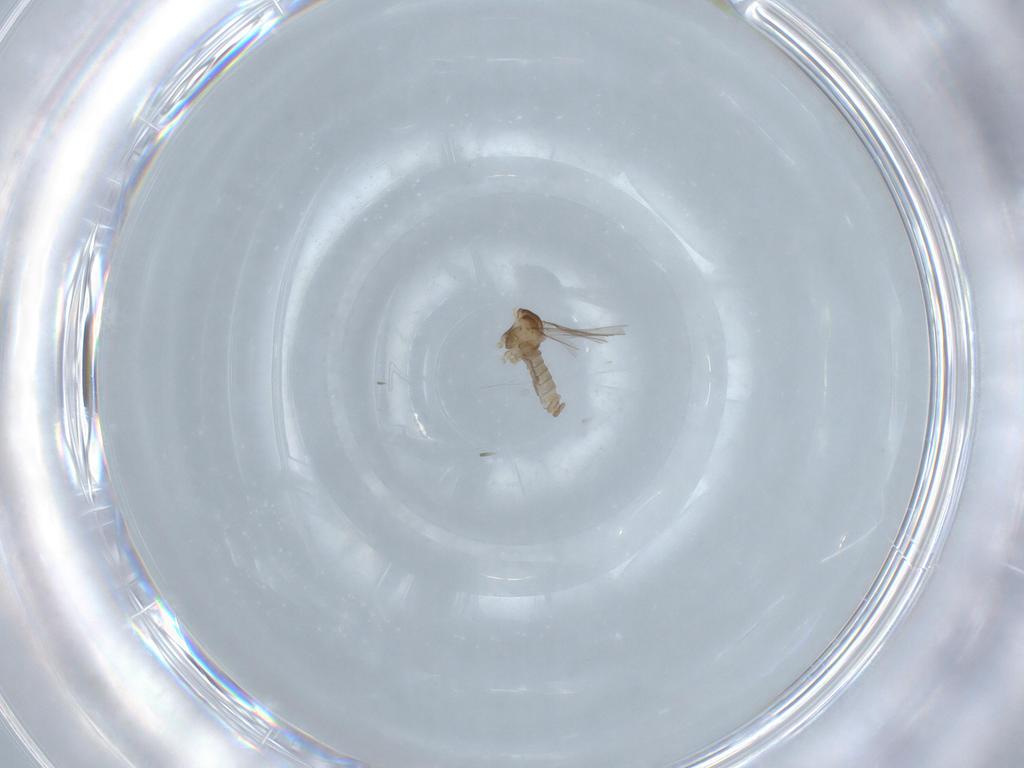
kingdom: Animalia
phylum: Arthropoda
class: Insecta
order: Diptera
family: Cecidomyiidae
